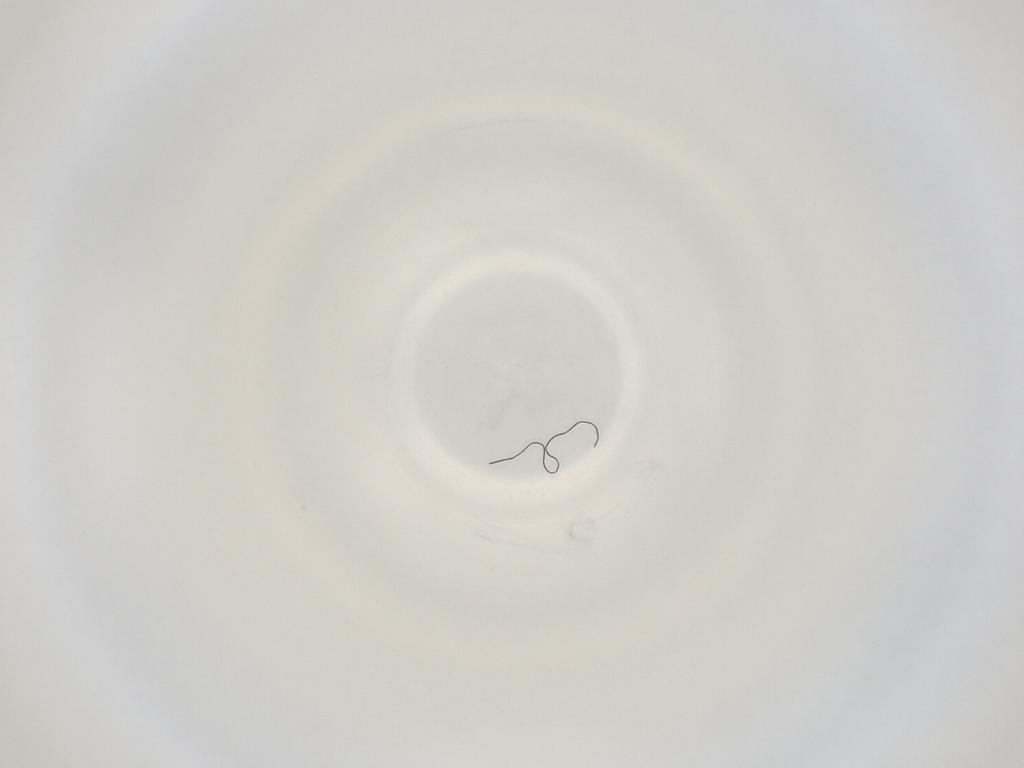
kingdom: Animalia
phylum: Arthropoda
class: Insecta
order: Diptera
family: Cecidomyiidae
